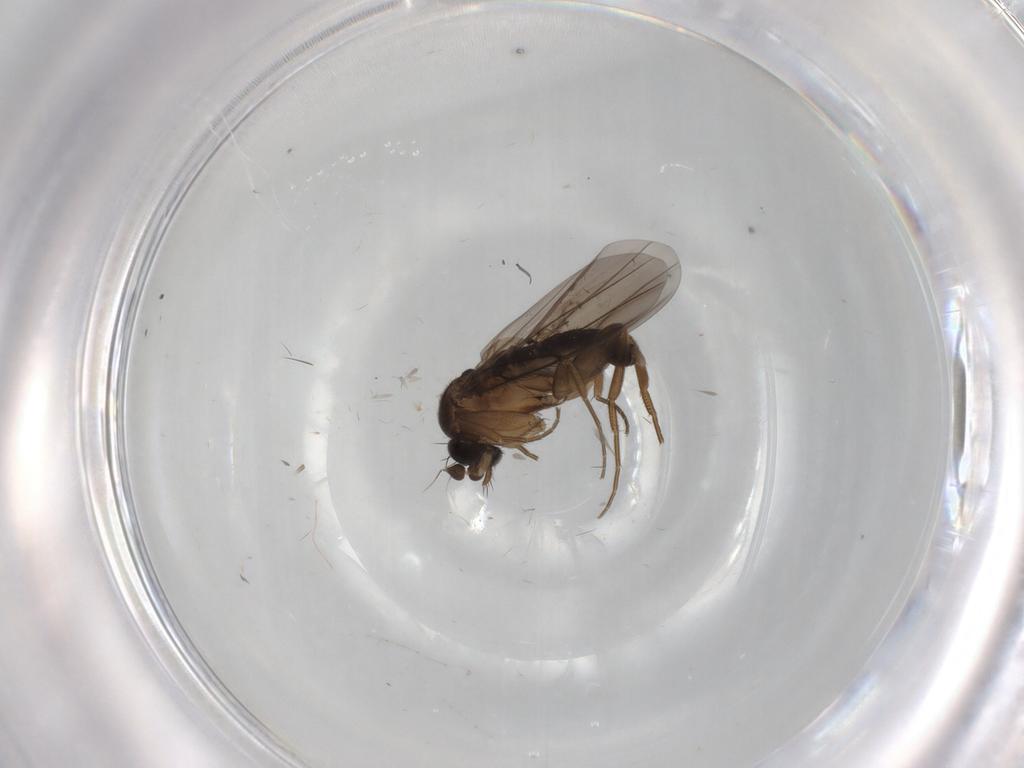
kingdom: Animalia
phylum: Arthropoda
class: Insecta
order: Diptera
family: Phoridae
